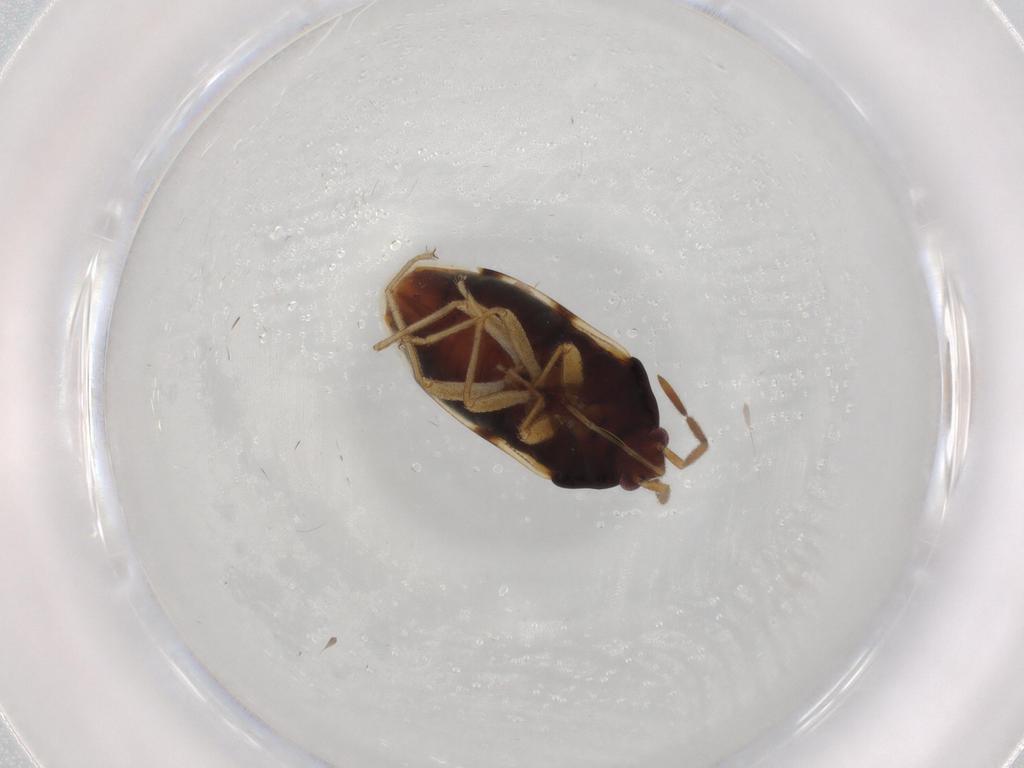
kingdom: Animalia
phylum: Arthropoda
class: Insecta
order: Hemiptera
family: Rhyparochromidae
